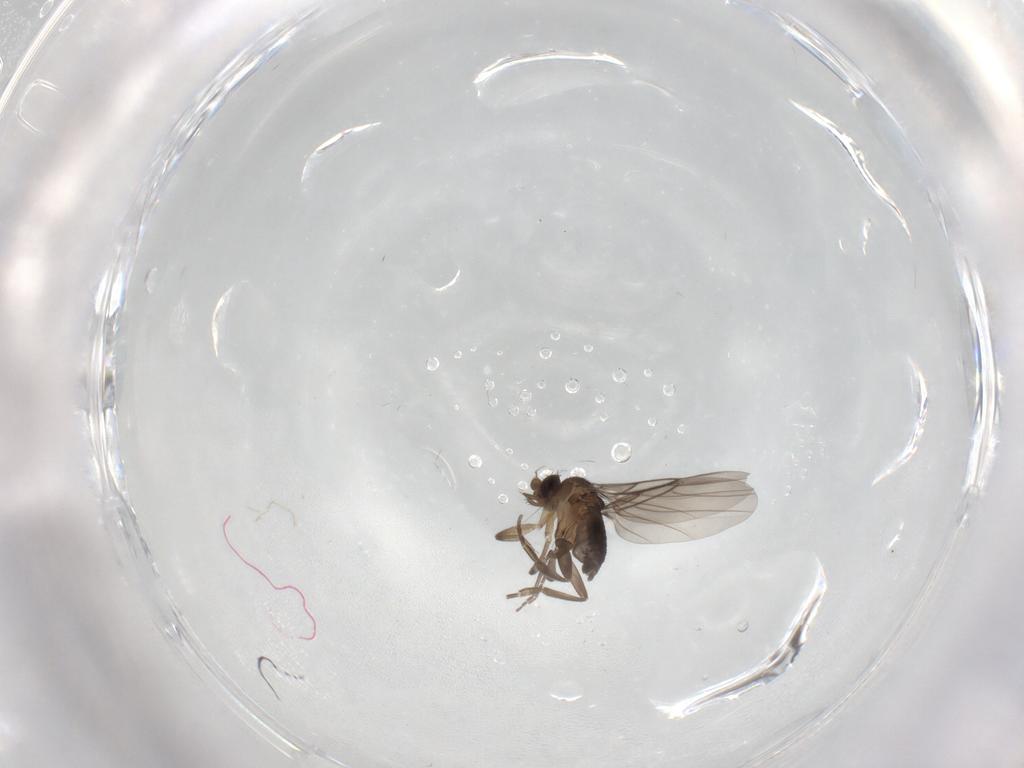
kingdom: Animalia
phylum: Arthropoda
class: Insecta
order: Diptera
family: Phoridae
